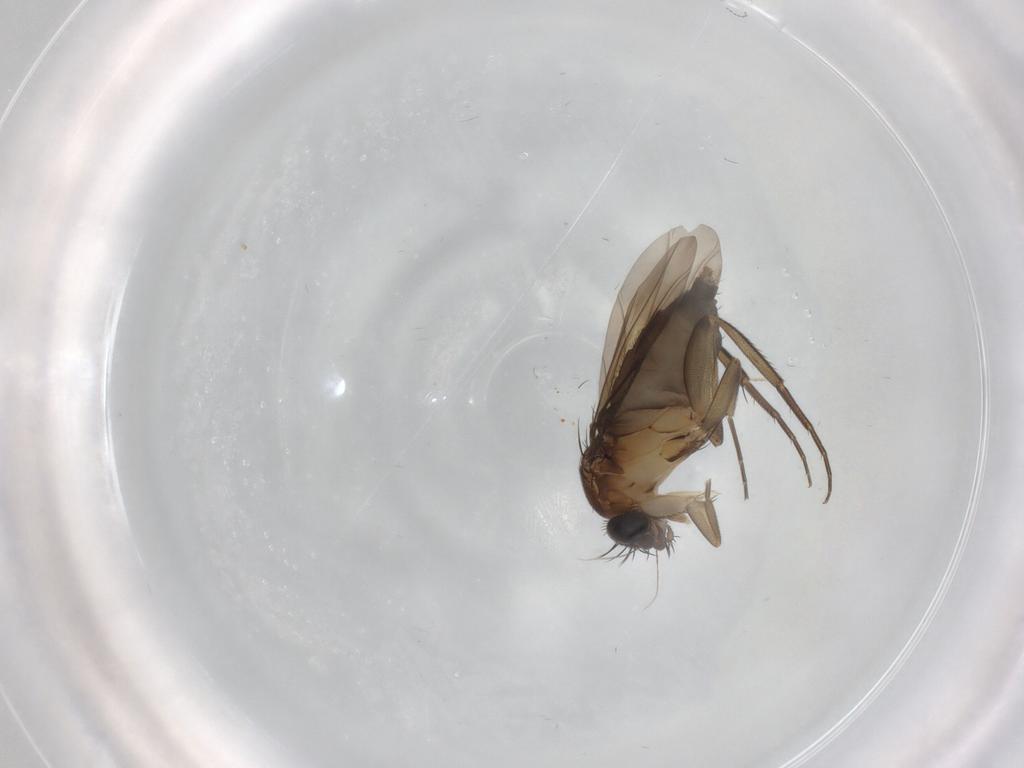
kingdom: Animalia
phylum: Arthropoda
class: Insecta
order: Diptera
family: Phoridae
